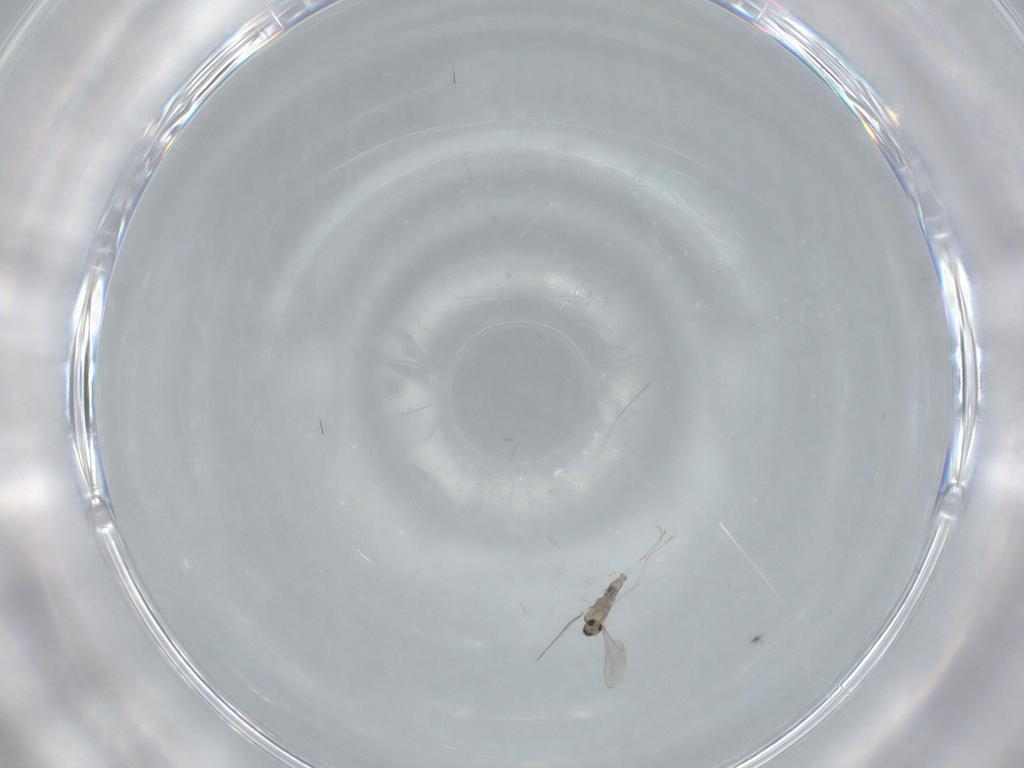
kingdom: Animalia
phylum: Arthropoda
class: Insecta
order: Diptera
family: Cecidomyiidae
